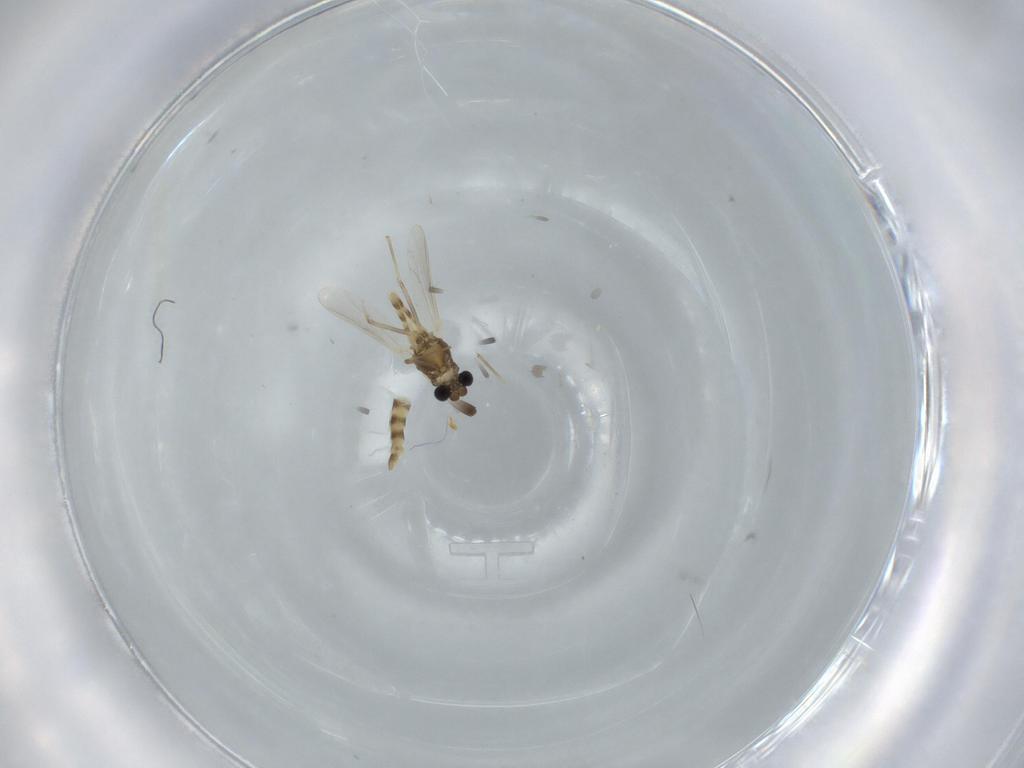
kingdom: Animalia
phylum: Arthropoda
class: Insecta
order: Diptera
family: Chironomidae
